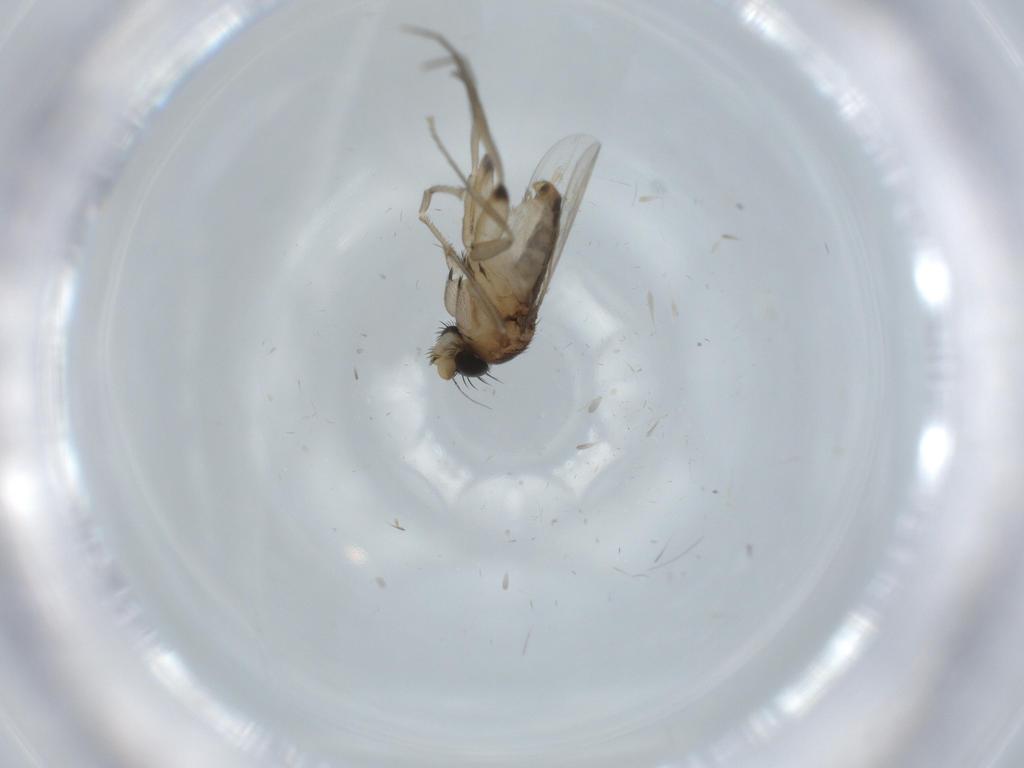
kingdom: Animalia
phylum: Arthropoda
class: Insecta
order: Diptera
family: Phoridae
